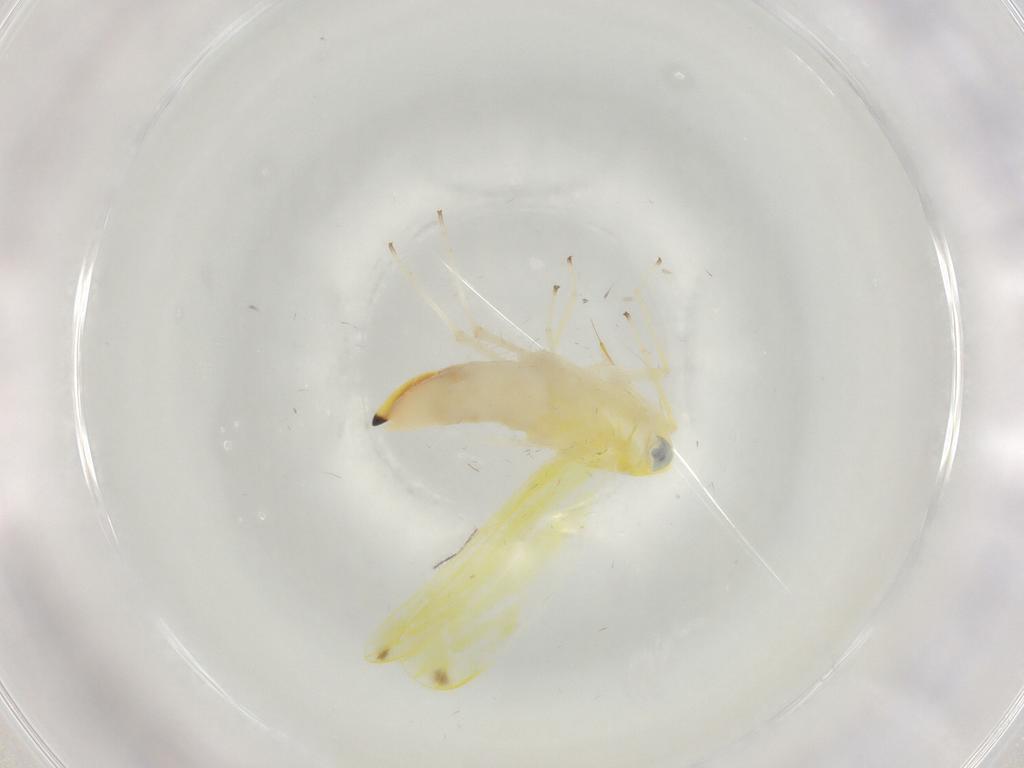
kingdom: Animalia
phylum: Arthropoda
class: Insecta
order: Hemiptera
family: Cicadellidae
